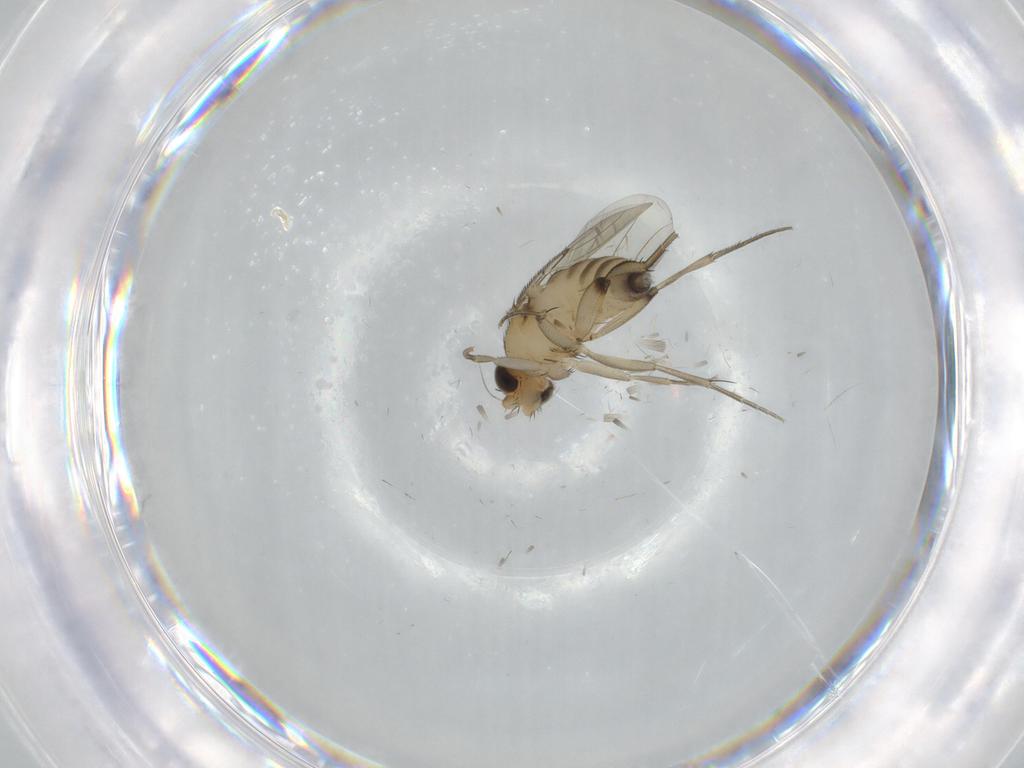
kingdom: Animalia
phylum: Arthropoda
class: Insecta
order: Diptera
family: Phoridae
